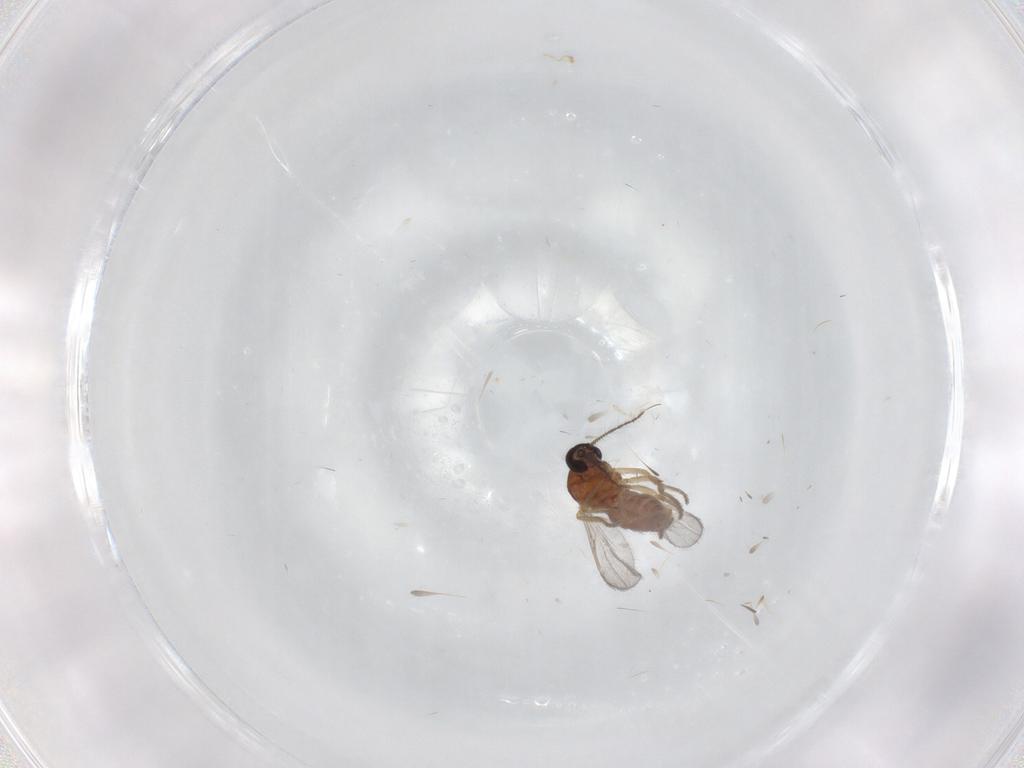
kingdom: Animalia
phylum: Arthropoda
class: Insecta
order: Diptera
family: Ceratopogonidae
